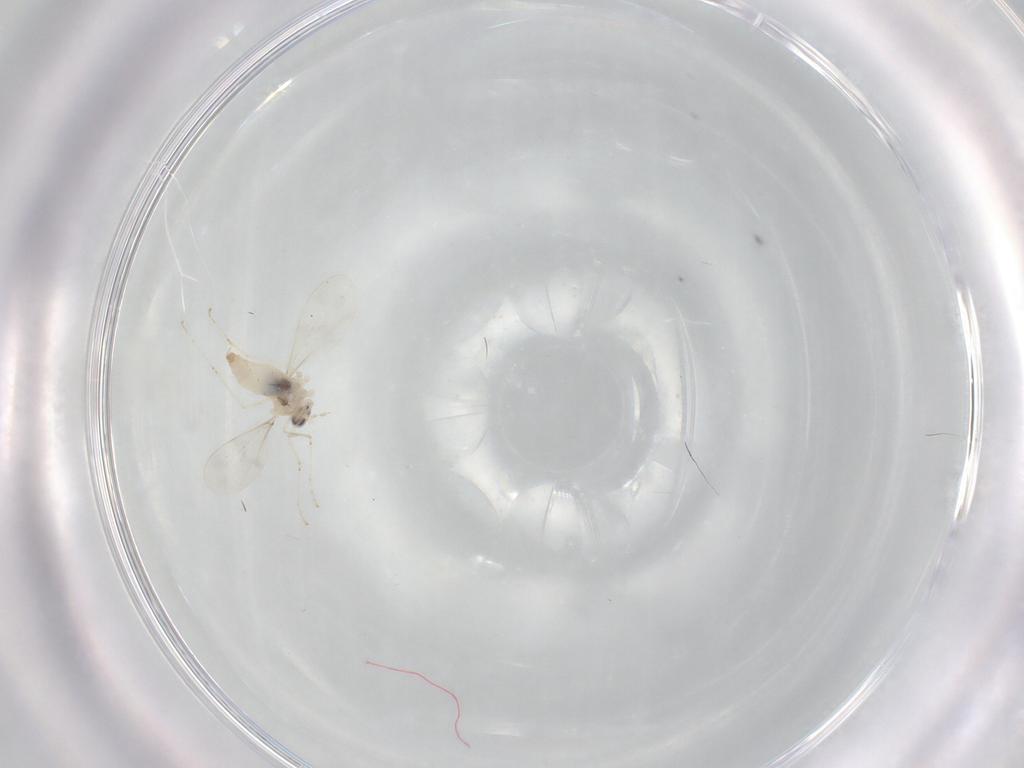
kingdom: Animalia
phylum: Arthropoda
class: Insecta
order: Diptera
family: Cecidomyiidae
